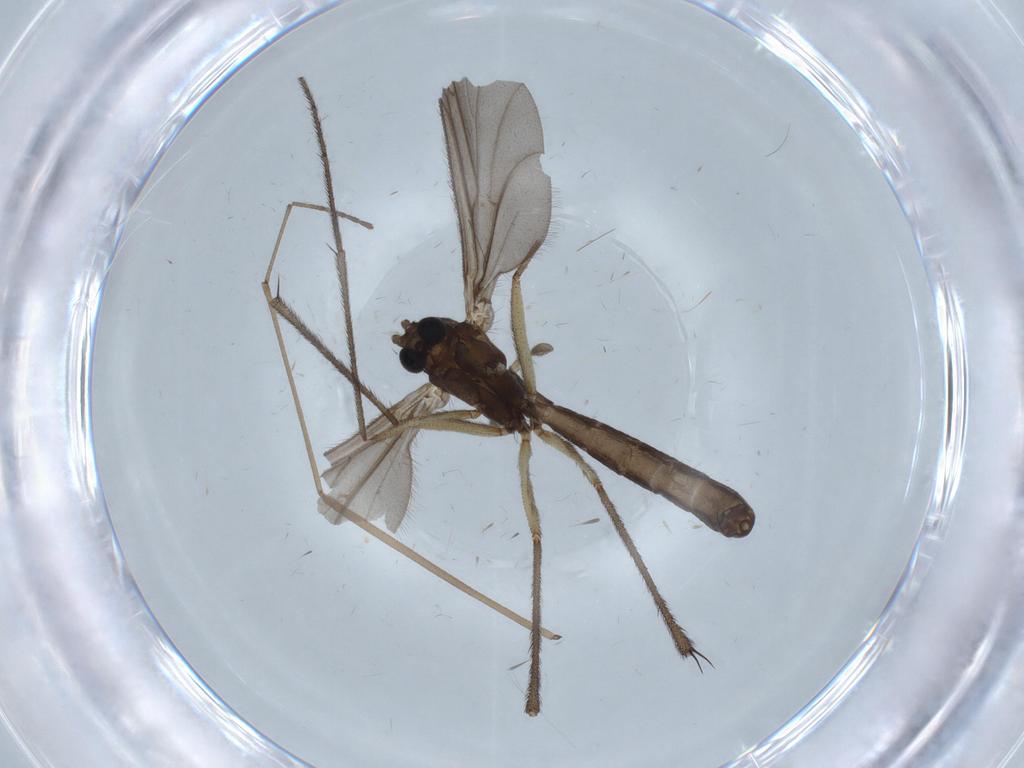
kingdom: Animalia
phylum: Arthropoda
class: Insecta
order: Diptera
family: Limoniidae
